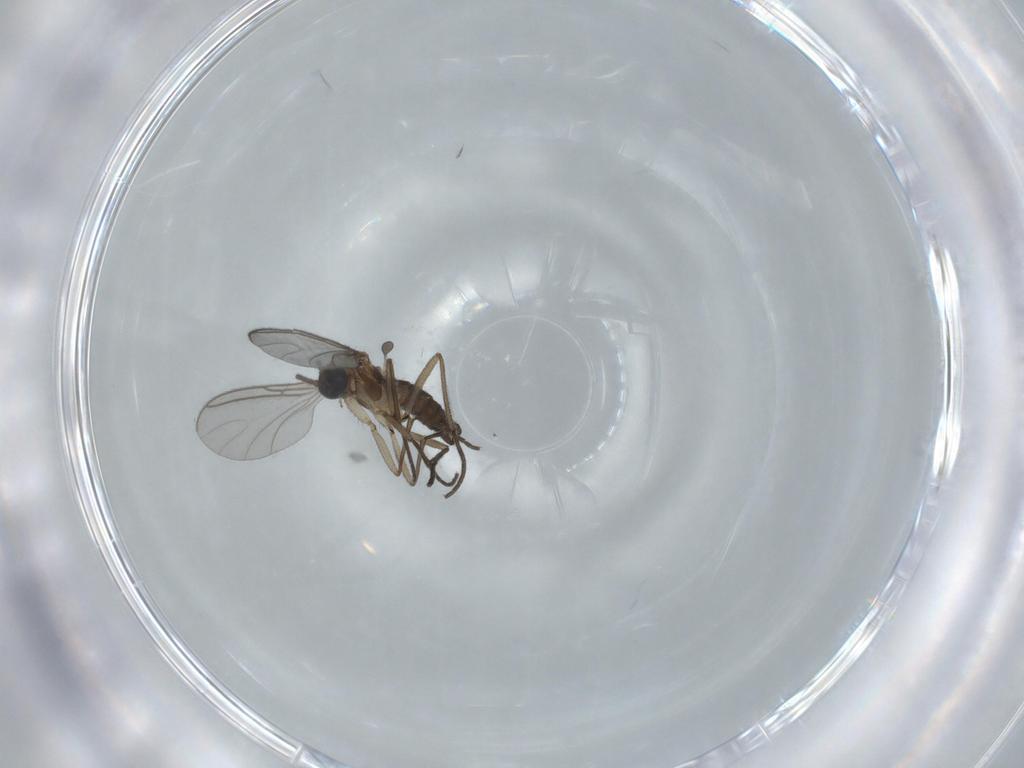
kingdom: Animalia
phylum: Arthropoda
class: Insecta
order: Diptera
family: Sciaridae
